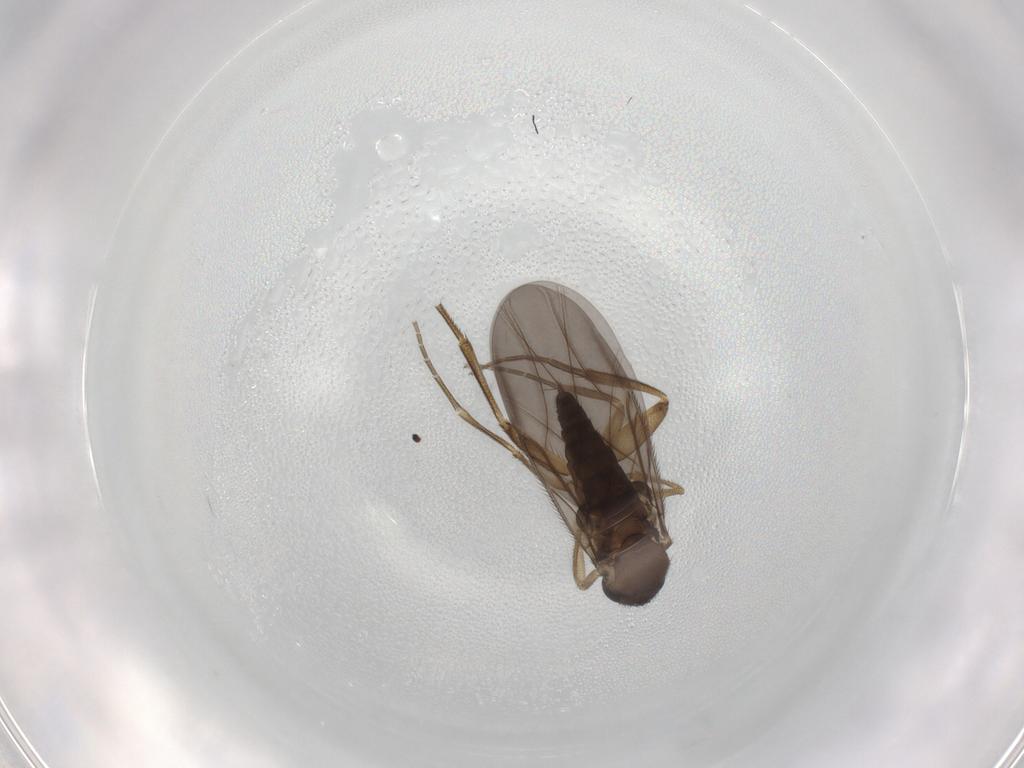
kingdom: Animalia
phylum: Arthropoda
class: Insecta
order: Diptera
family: Phoridae
